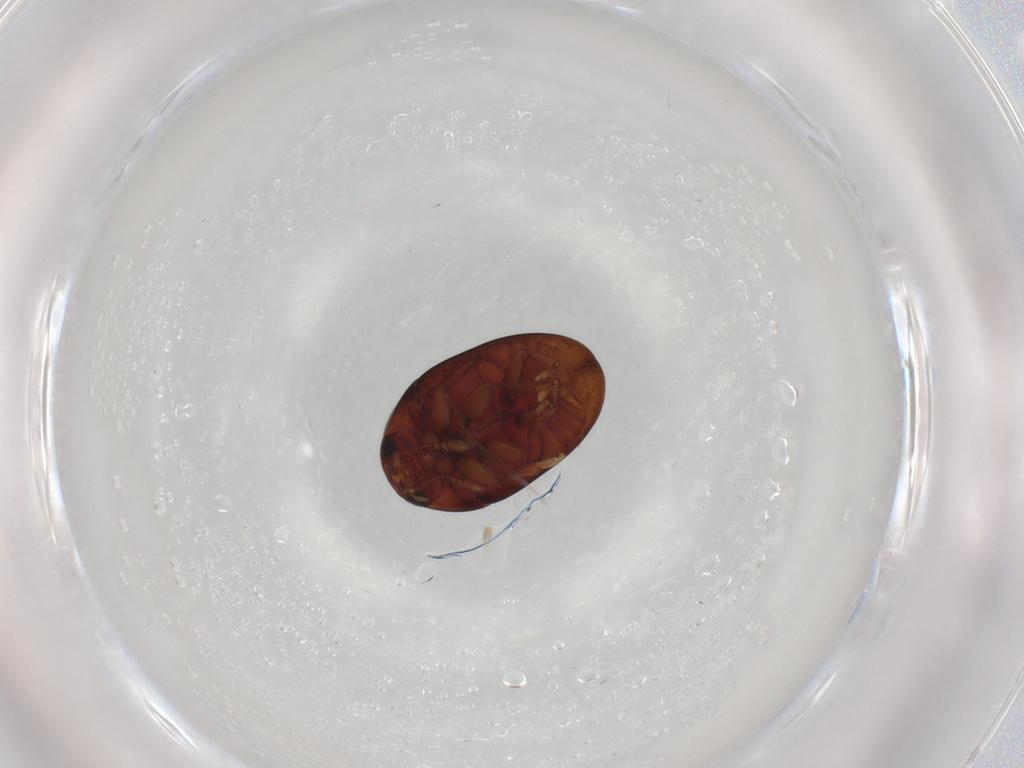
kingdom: Animalia
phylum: Arthropoda
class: Insecta
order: Coleoptera
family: Phalacridae
